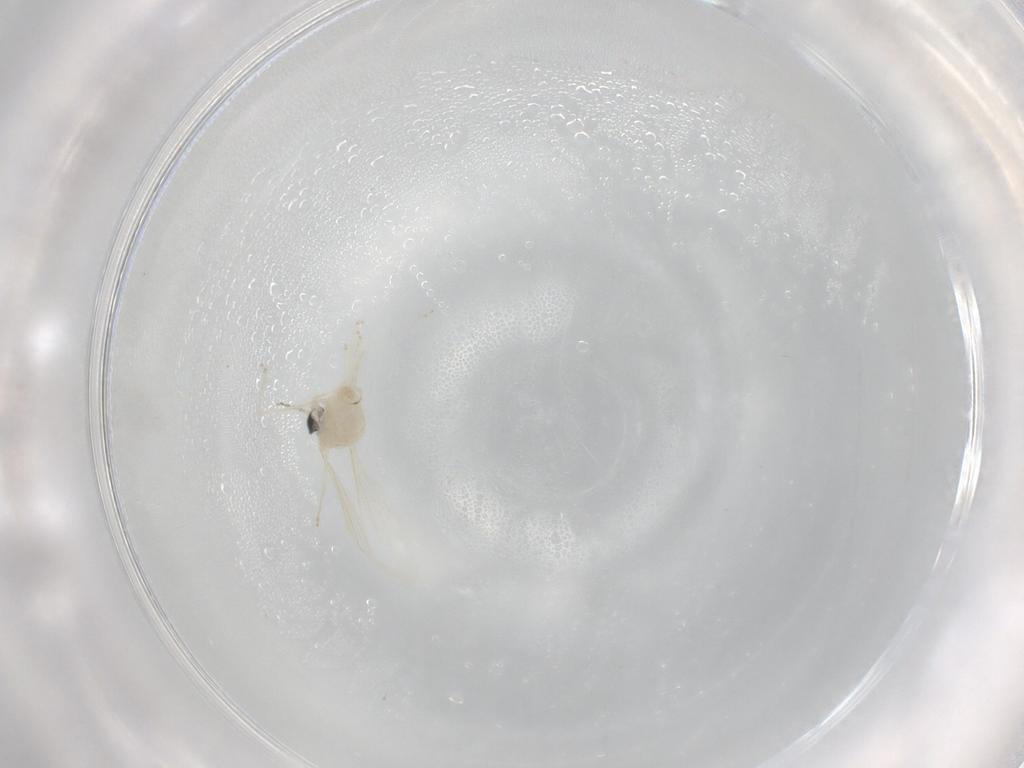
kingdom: Animalia
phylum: Arthropoda
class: Insecta
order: Diptera
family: Cecidomyiidae
